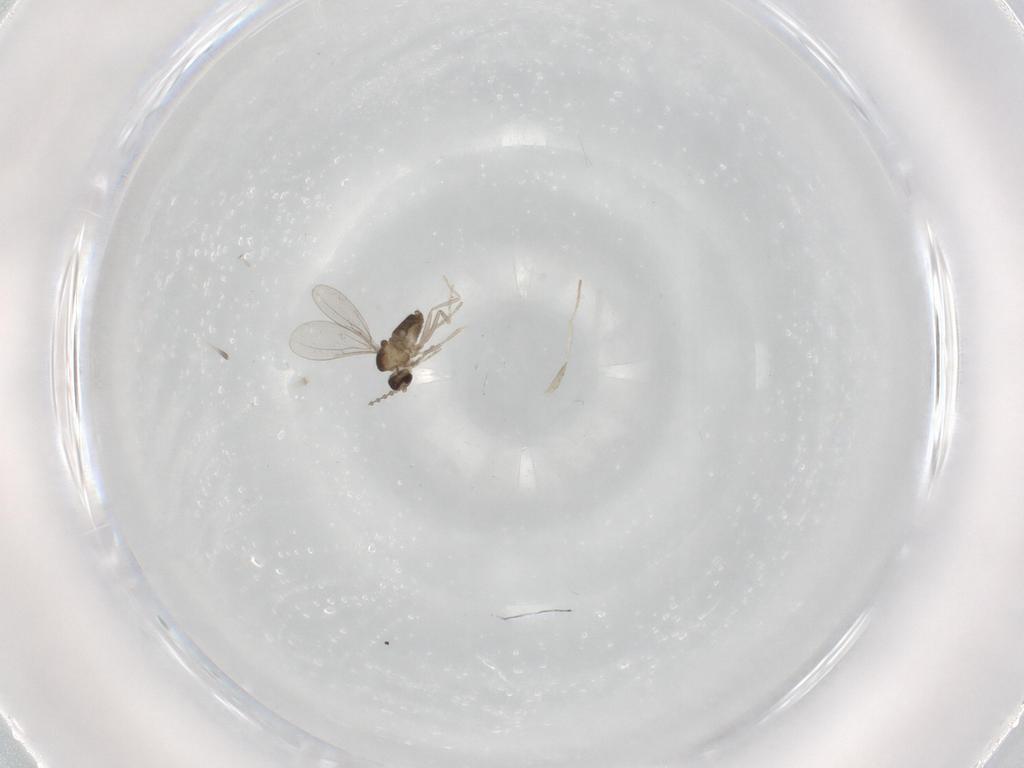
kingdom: Animalia
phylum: Arthropoda
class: Insecta
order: Diptera
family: Cecidomyiidae
